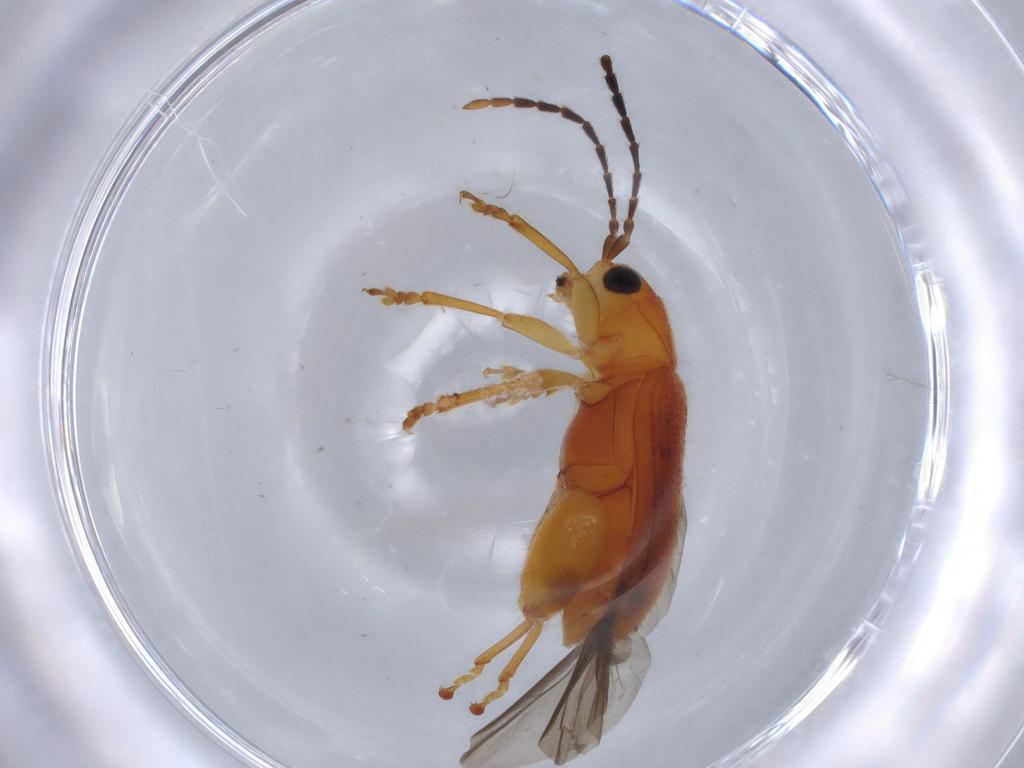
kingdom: Animalia
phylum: Arthropoda
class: Insecta
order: Coleoptera
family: Chrysomelidae
